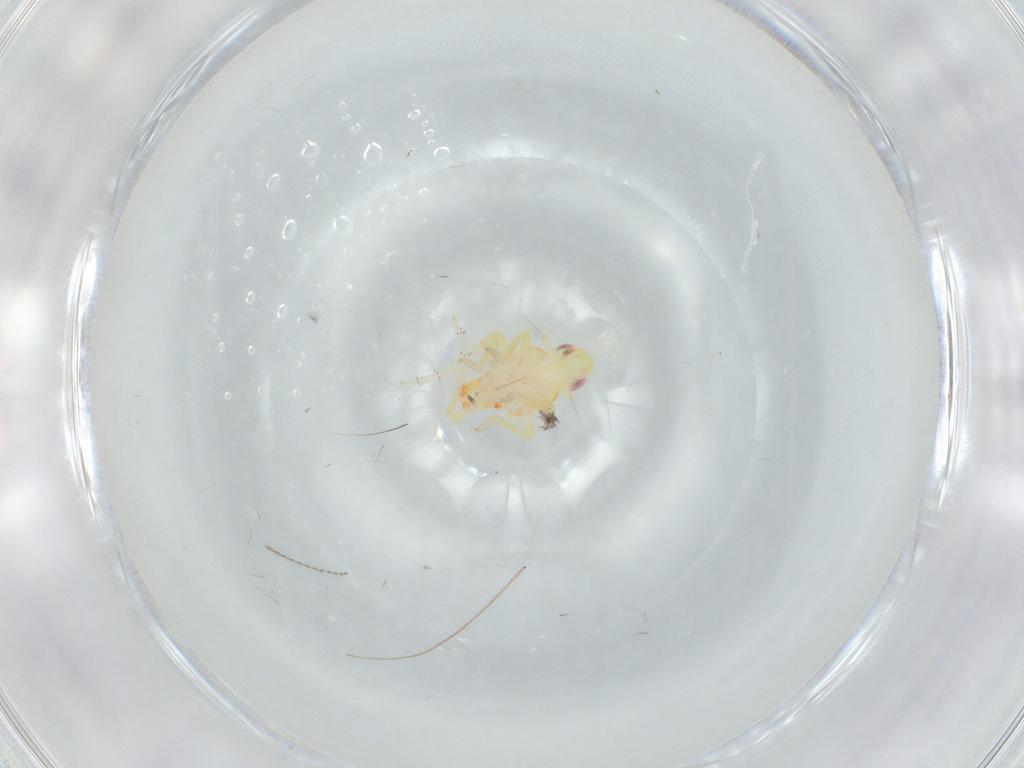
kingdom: Animalia
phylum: Arthropoda
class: Insecta
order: Hemiptera
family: Tropiduchidae
